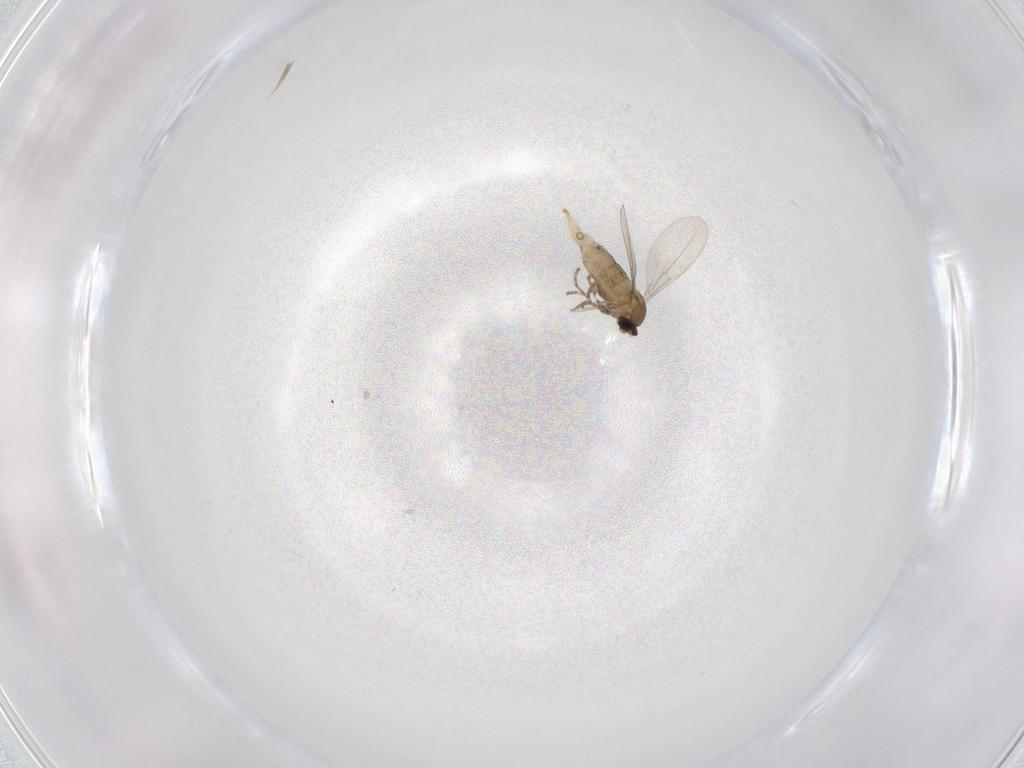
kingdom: Animalia
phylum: Arthropoda
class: Insecta
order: Diptera
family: Cecidomyiidae
